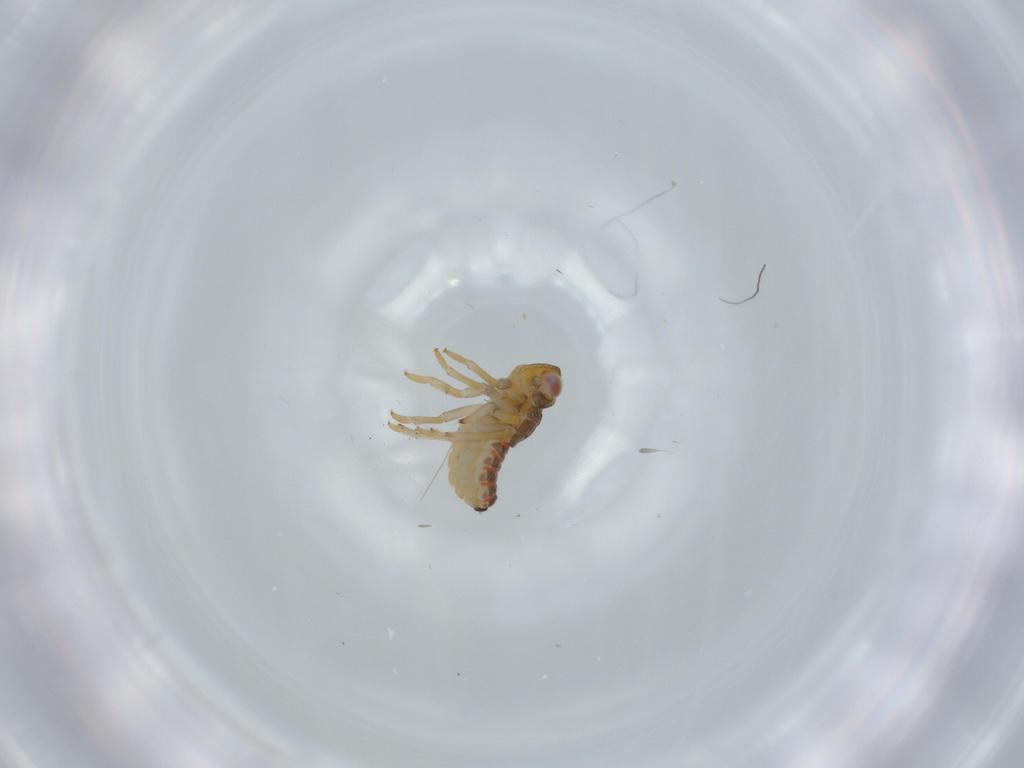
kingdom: Animalia
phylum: Arthropoda
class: Insecta
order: Hemiptera
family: Issidae
